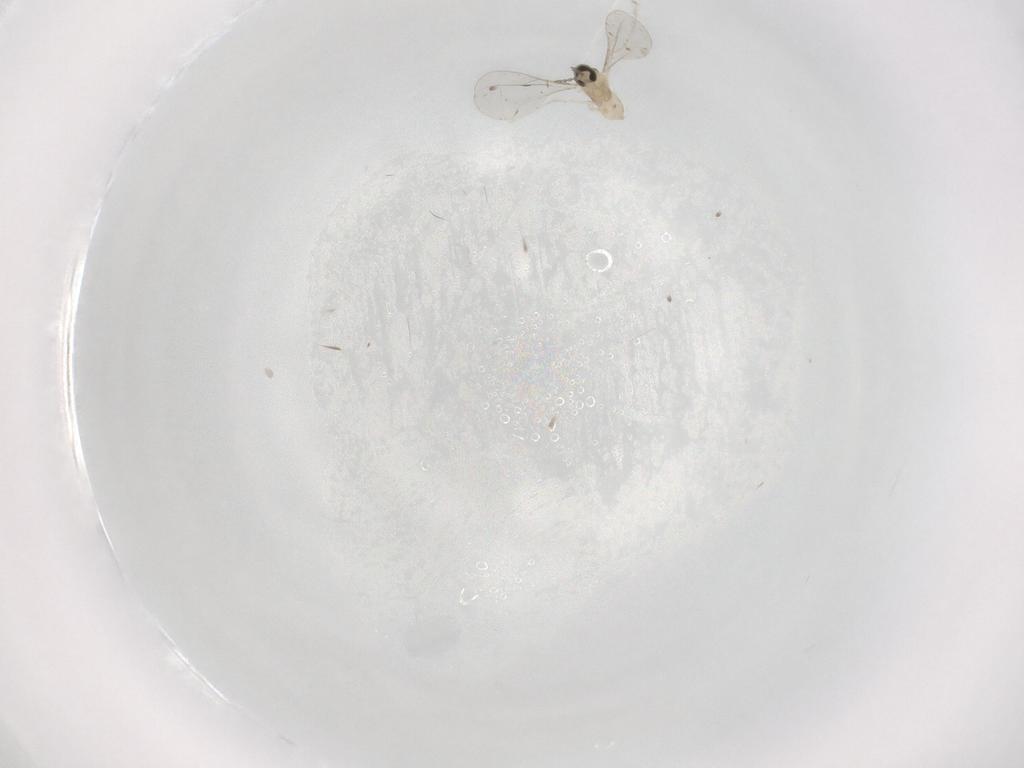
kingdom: Animalia
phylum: Arthropoda
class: Insecta
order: Diptera
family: Cecidomyiidae
